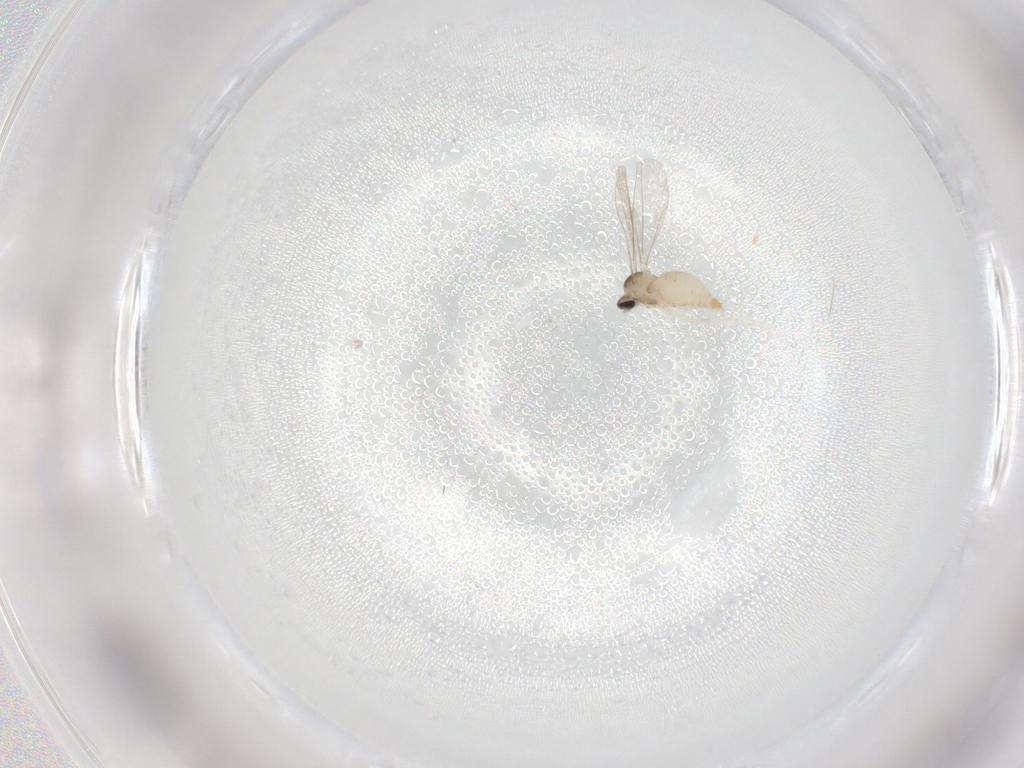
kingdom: Animalia
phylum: Arthropoda
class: Insecta
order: Diptera
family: Cecidomyiidae
